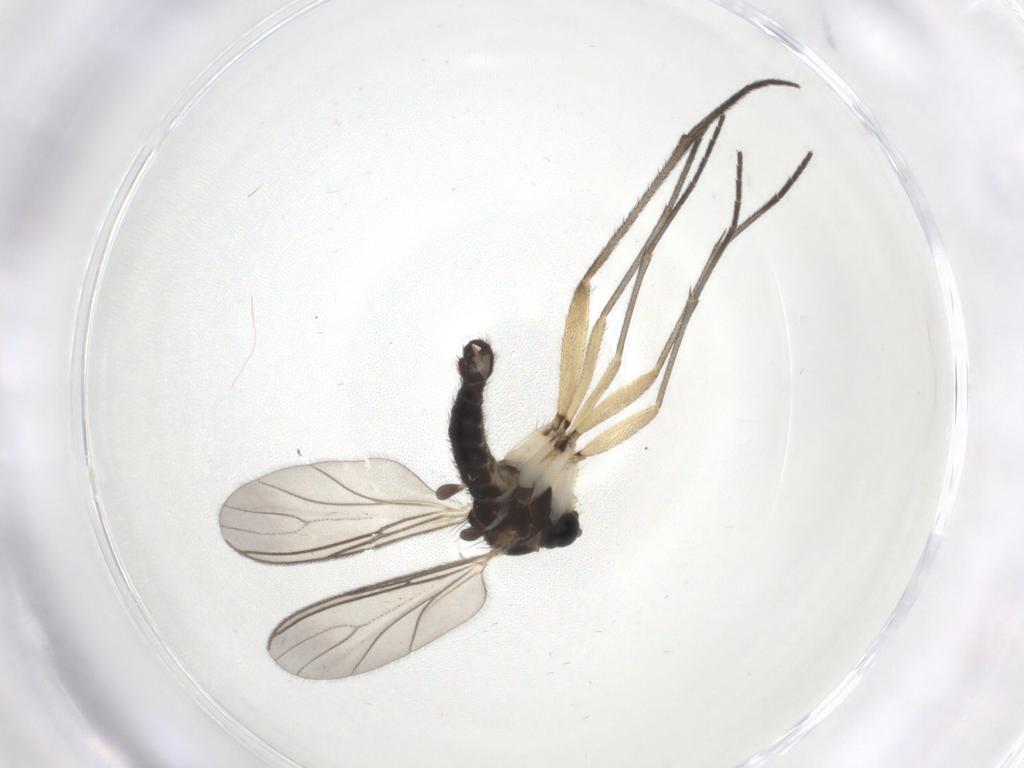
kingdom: Animalia
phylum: Arthropoda
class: Insecta
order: Diptera
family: Sciaridae
